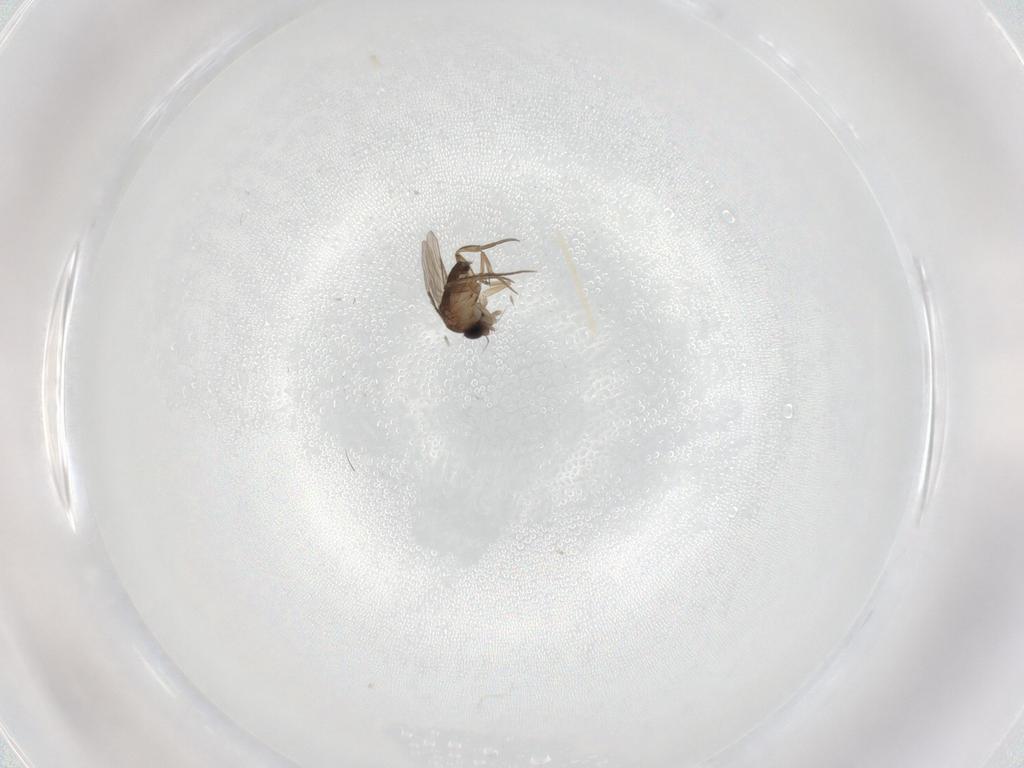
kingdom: Animalia
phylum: Arthropoda
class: Insecta
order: Diptera
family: Phoridae
